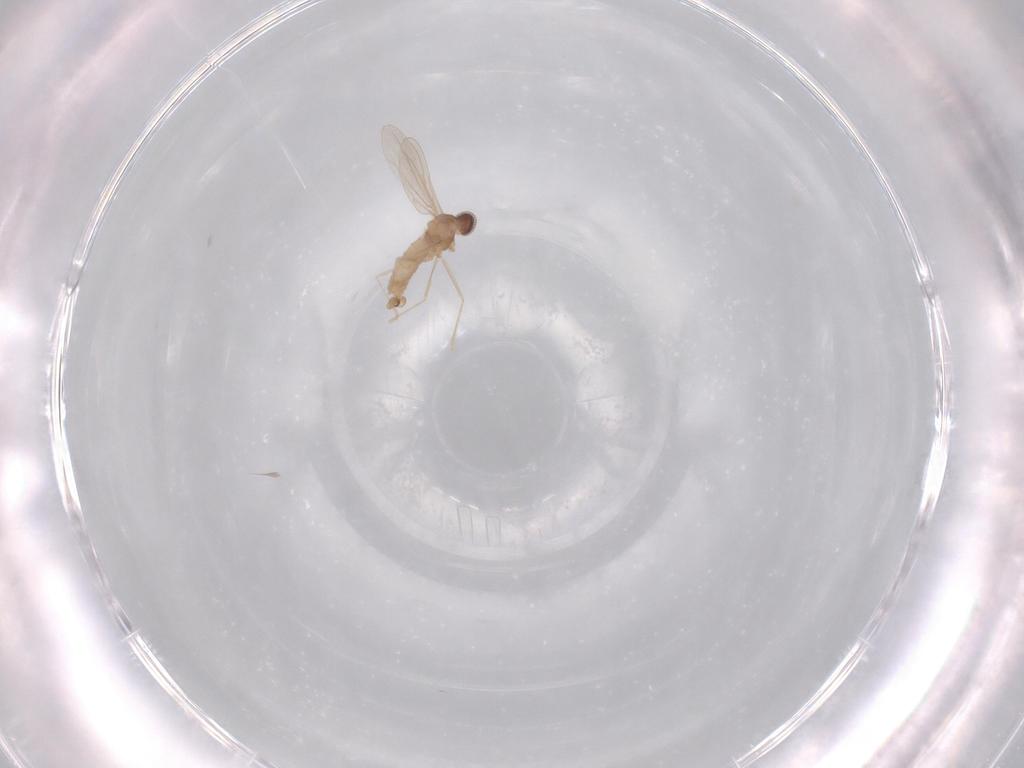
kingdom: Animalia
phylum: Arthropoda
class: Insecta
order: Diptera
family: Cecidomyiidae
